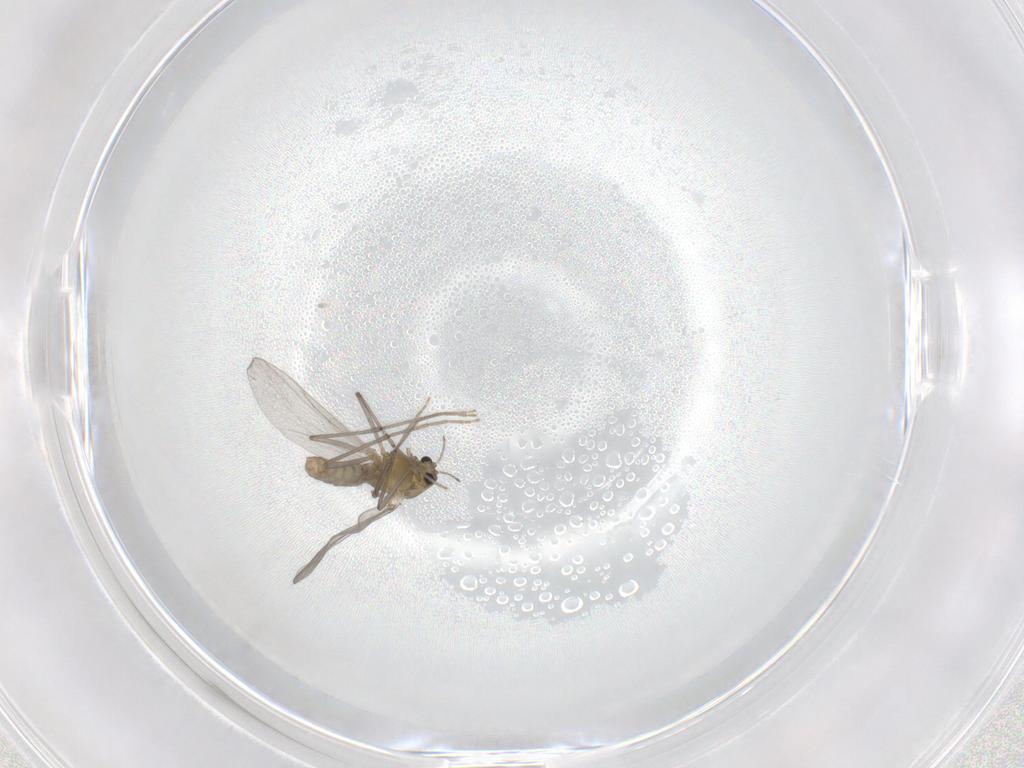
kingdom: Animalia
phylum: Arthropoda
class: Insecta
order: Diptera
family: Chironomidae
